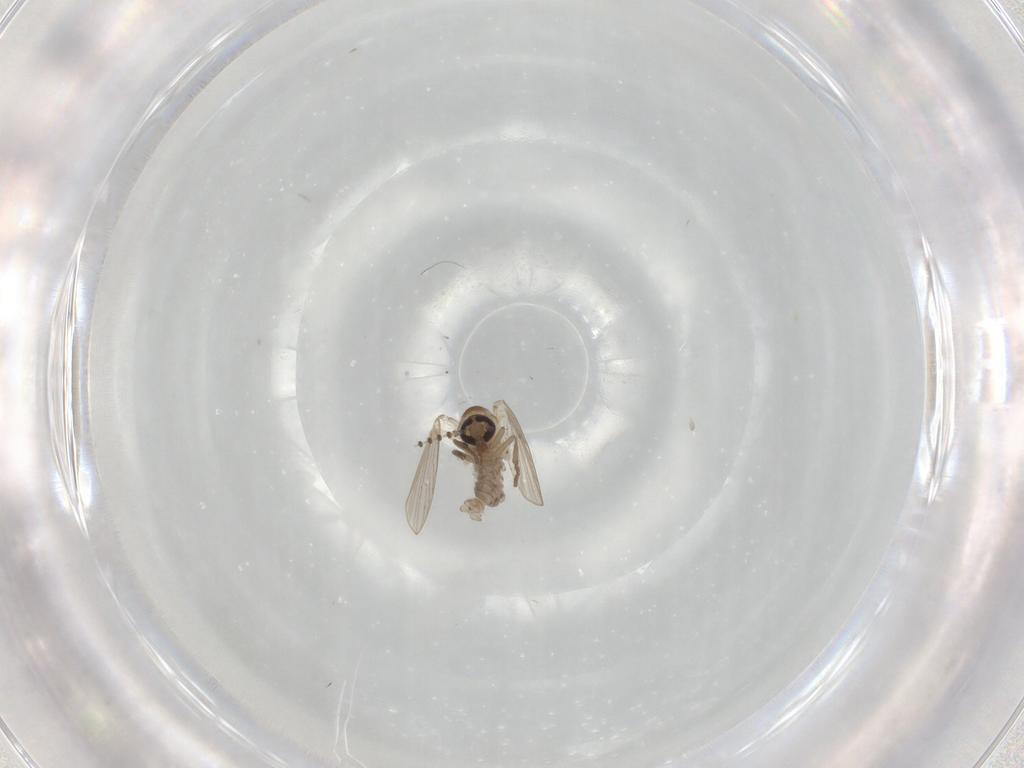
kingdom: Animalia
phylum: Arthropoda
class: Insecta
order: Diptera
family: Psychodidae
